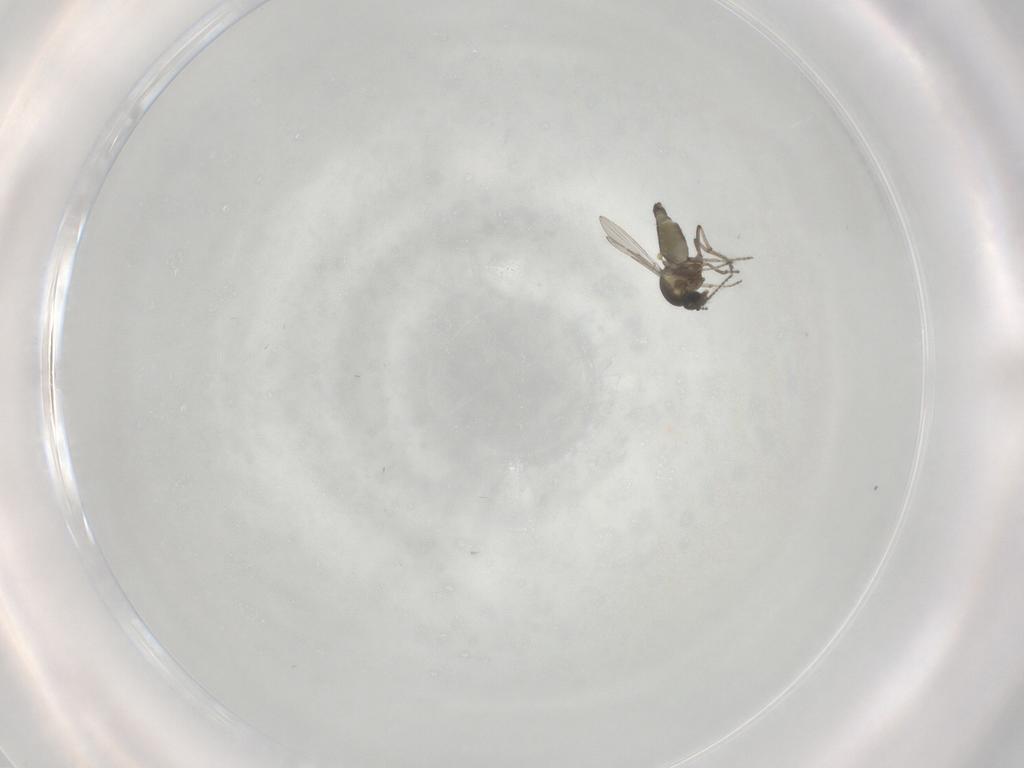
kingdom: Animalia
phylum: Arthropoda
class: Insecta
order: Diptera
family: Ceratopogonidae
